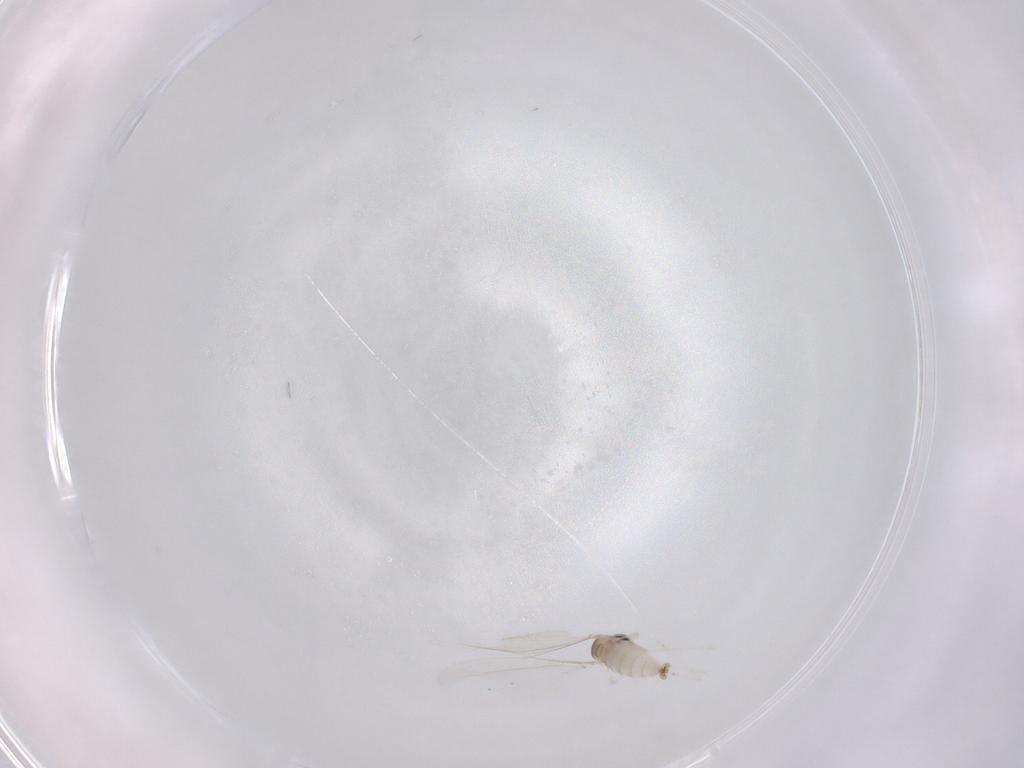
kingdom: Animalia
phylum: Arthropoda
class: Insecta
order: Diptera
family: Cecidomyiidae
